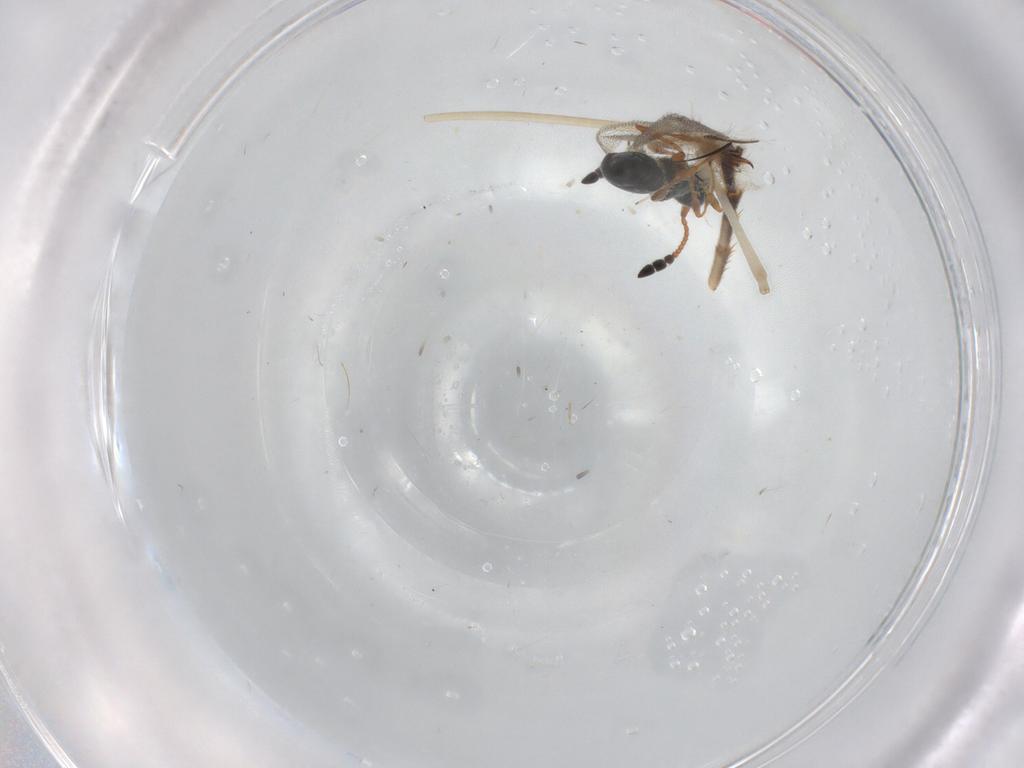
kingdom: Animalia
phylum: Arthropoda
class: Insecta
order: Hymenoptera
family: Diapriidae
